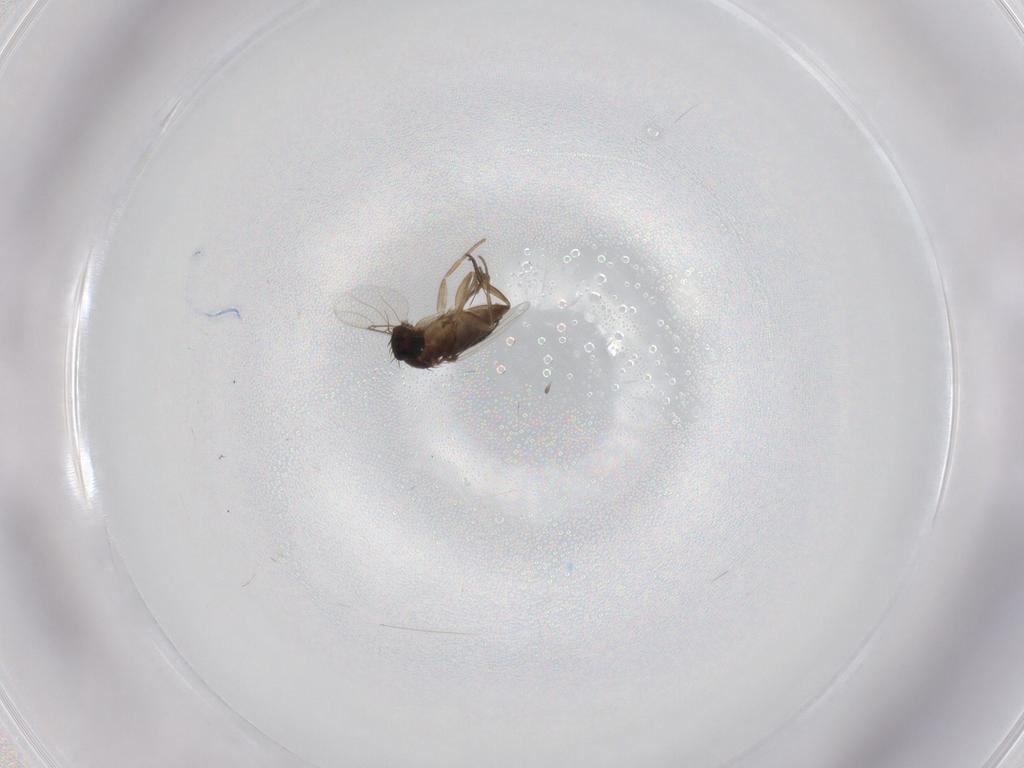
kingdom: Animalia
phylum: Arthropoda
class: Insecta
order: Diptera
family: Phoridae
